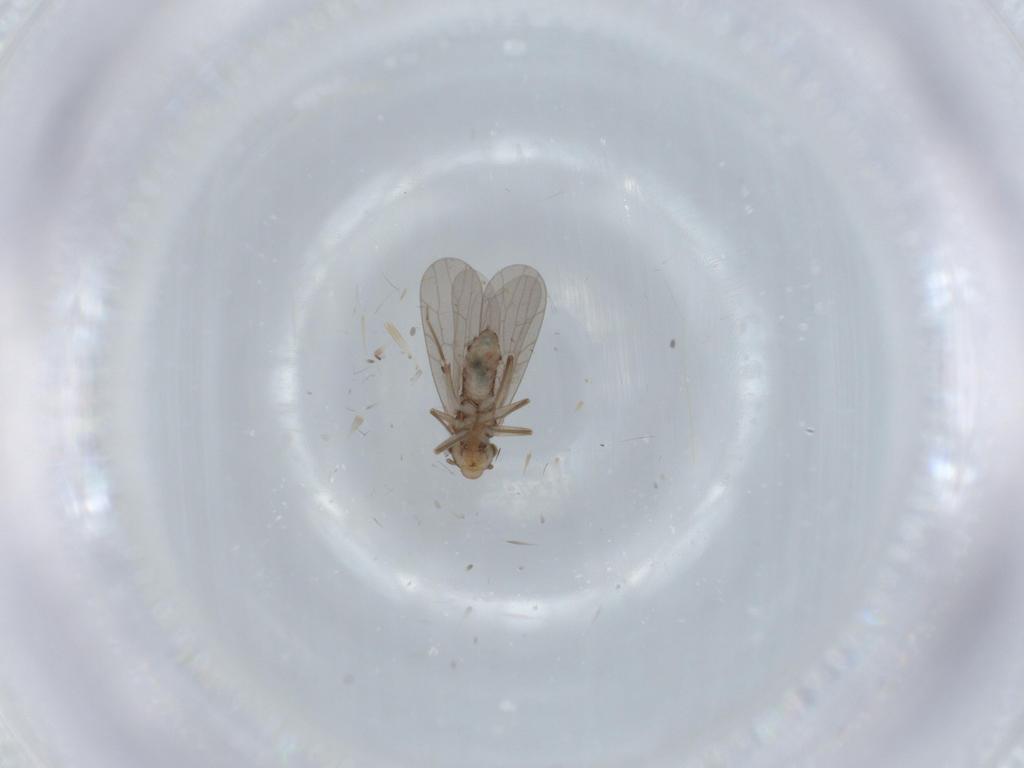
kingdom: Animalia
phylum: Arthropoda
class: Insecta
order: Psocodea
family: Lepidopsocidae
